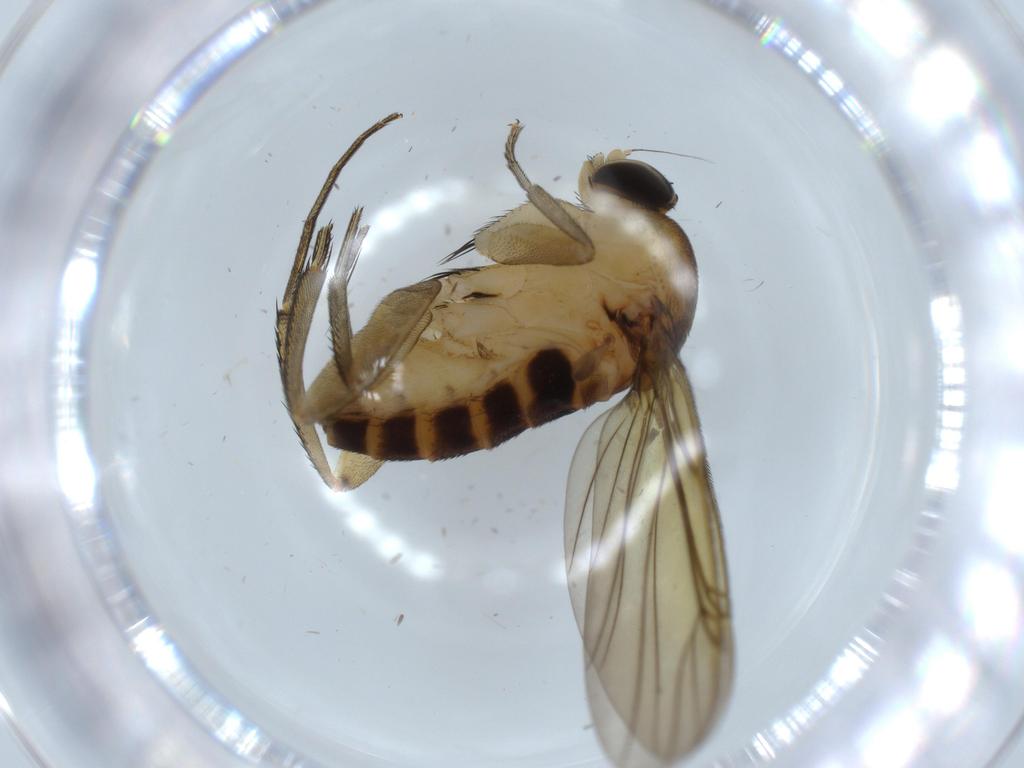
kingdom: Animalia
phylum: Arthropoda
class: Insecta
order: Diptera
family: Phoridae
